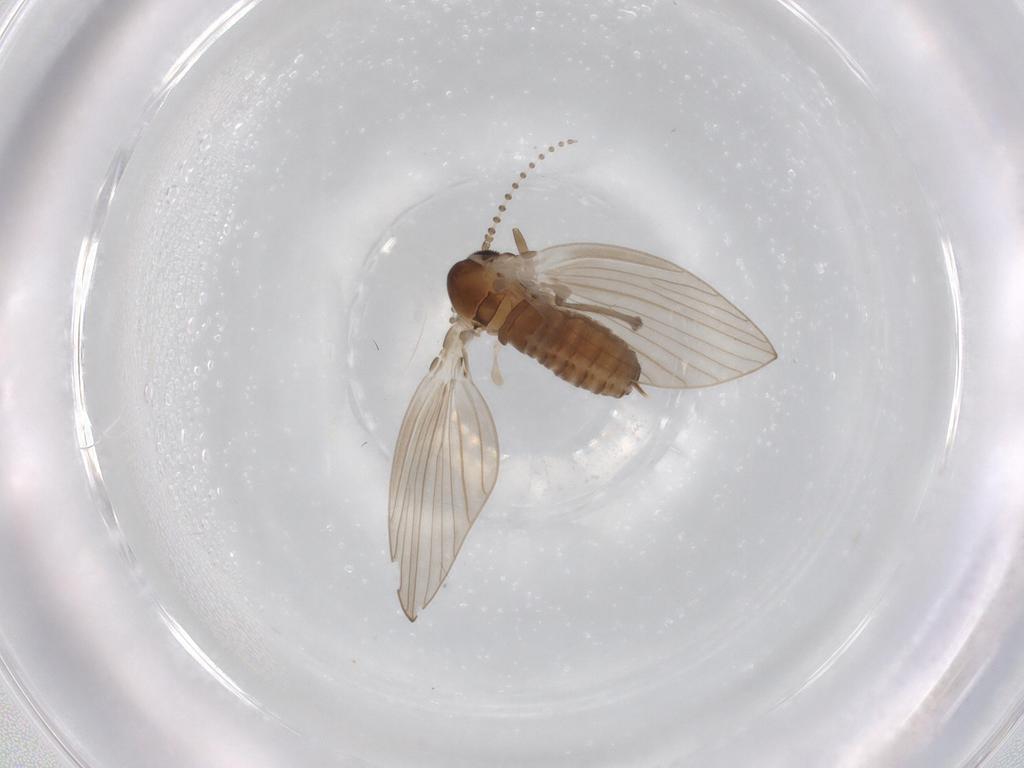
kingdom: Animalia
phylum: Arthropoda
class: Insecta
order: Diptera
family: Psychodidae
